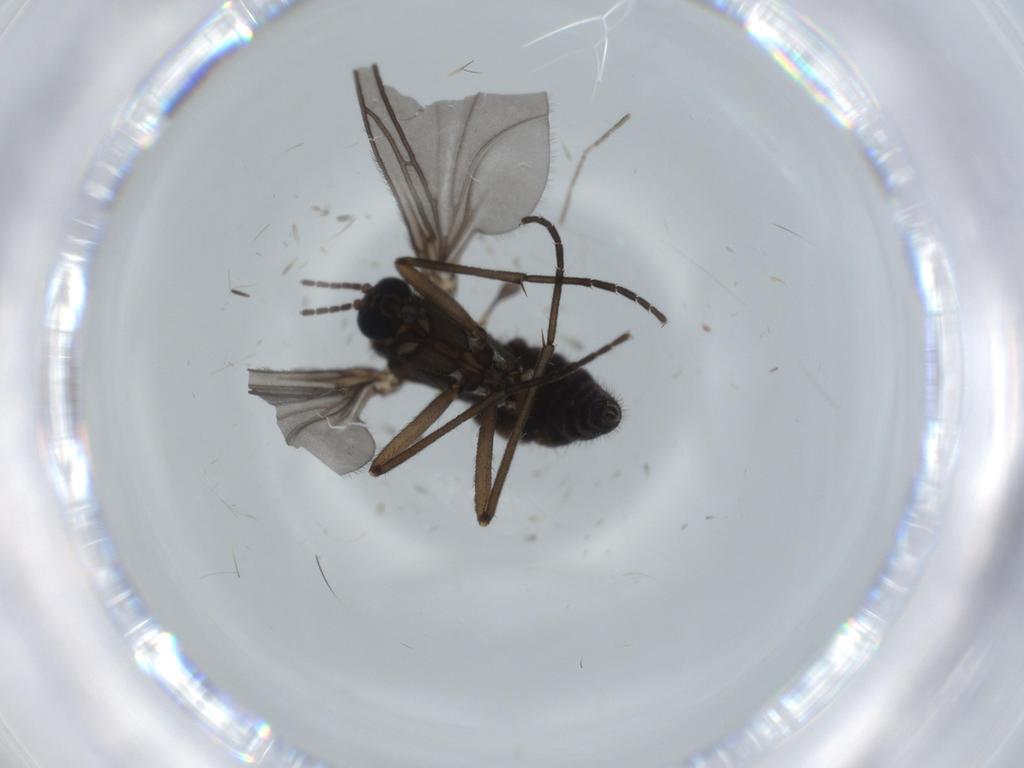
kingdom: Animalia
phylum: Arthropoda
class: Insecta
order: Diptera
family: Sciaridae
